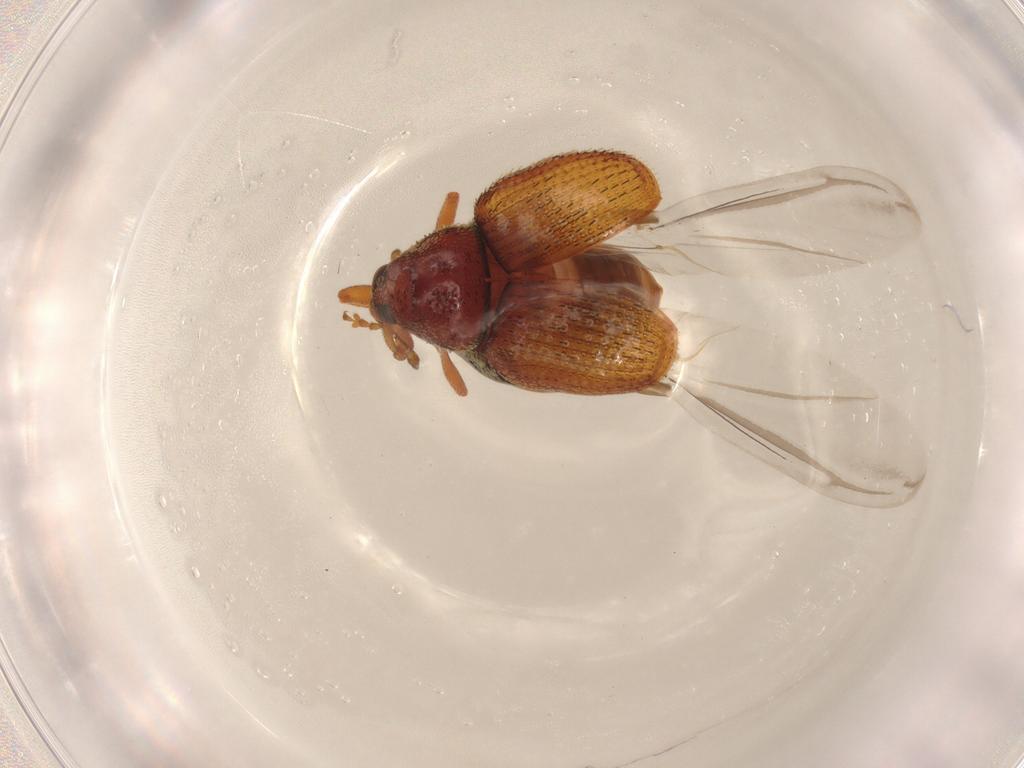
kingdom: Animalia
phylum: Arthropoda
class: Insecta
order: Coleoptera
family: Curculionidae
